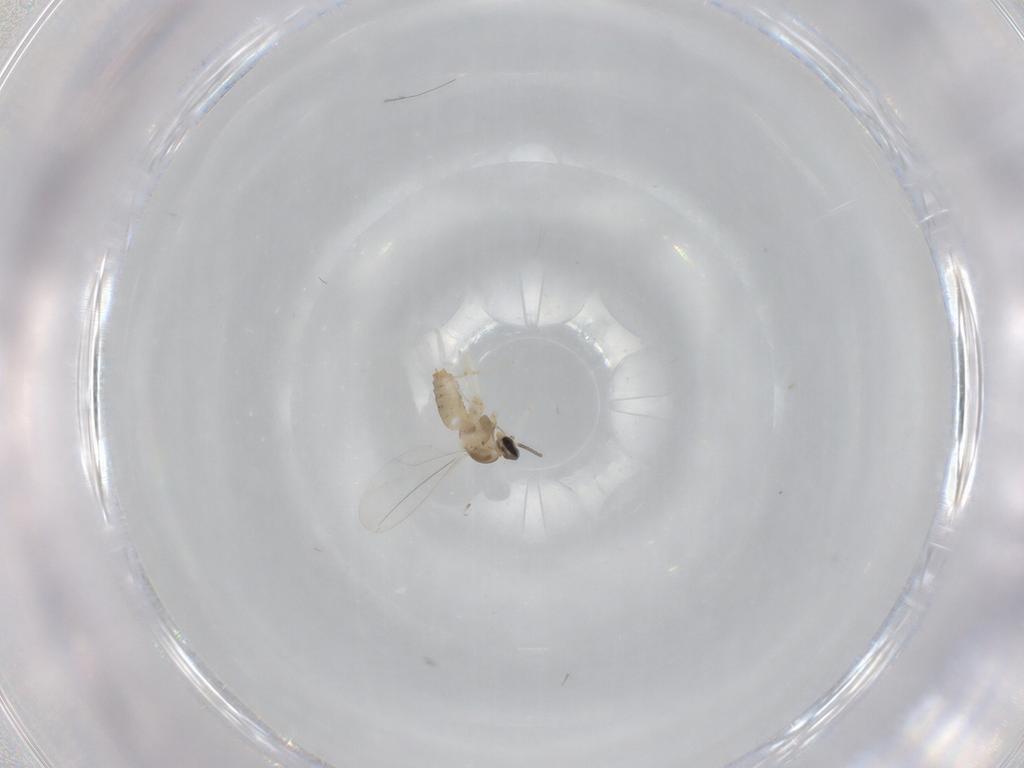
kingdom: Animalia
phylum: Arthropoda
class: Insecta
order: Diptera
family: Cecidomyiidae
